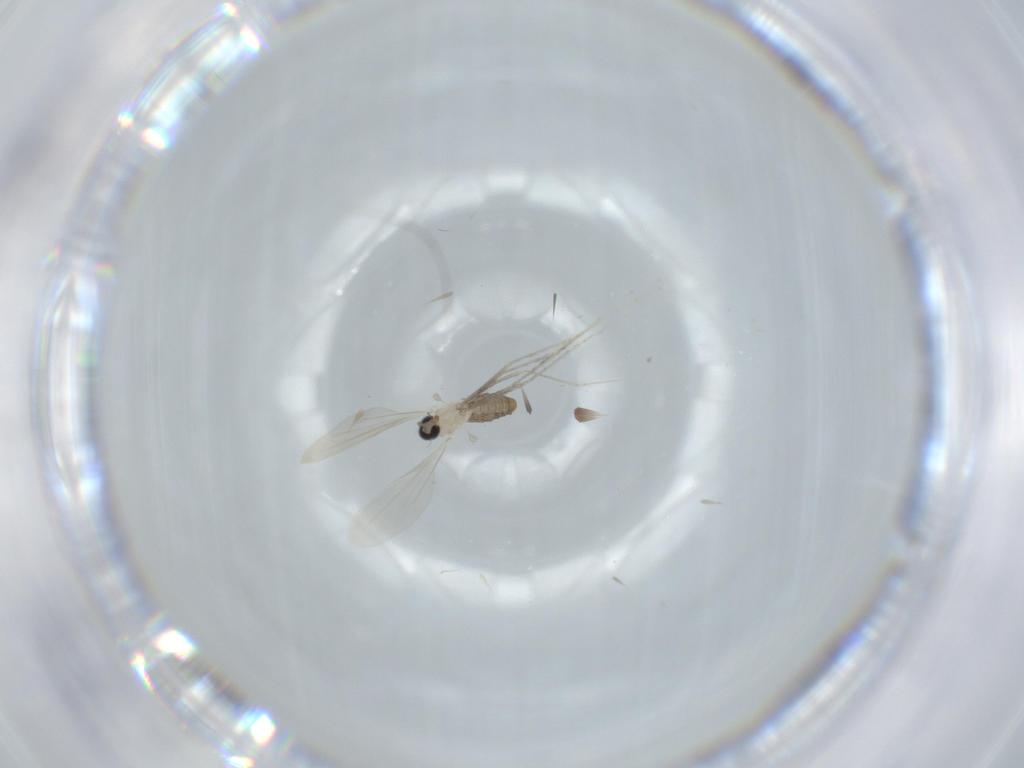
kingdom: Animalia
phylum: Arthropoda
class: Insecta
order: Diptera
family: Cecidomyiidae
